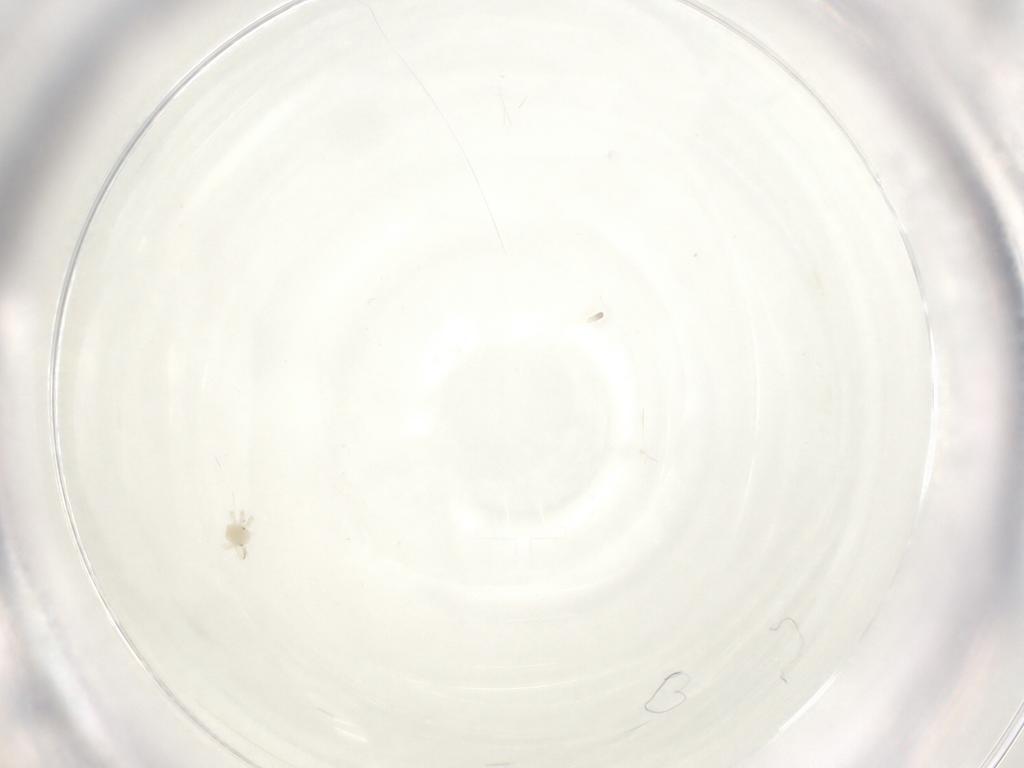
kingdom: Animalia
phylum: Arthropoda
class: Arachnida
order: Trombidiformes
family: Anystidae
